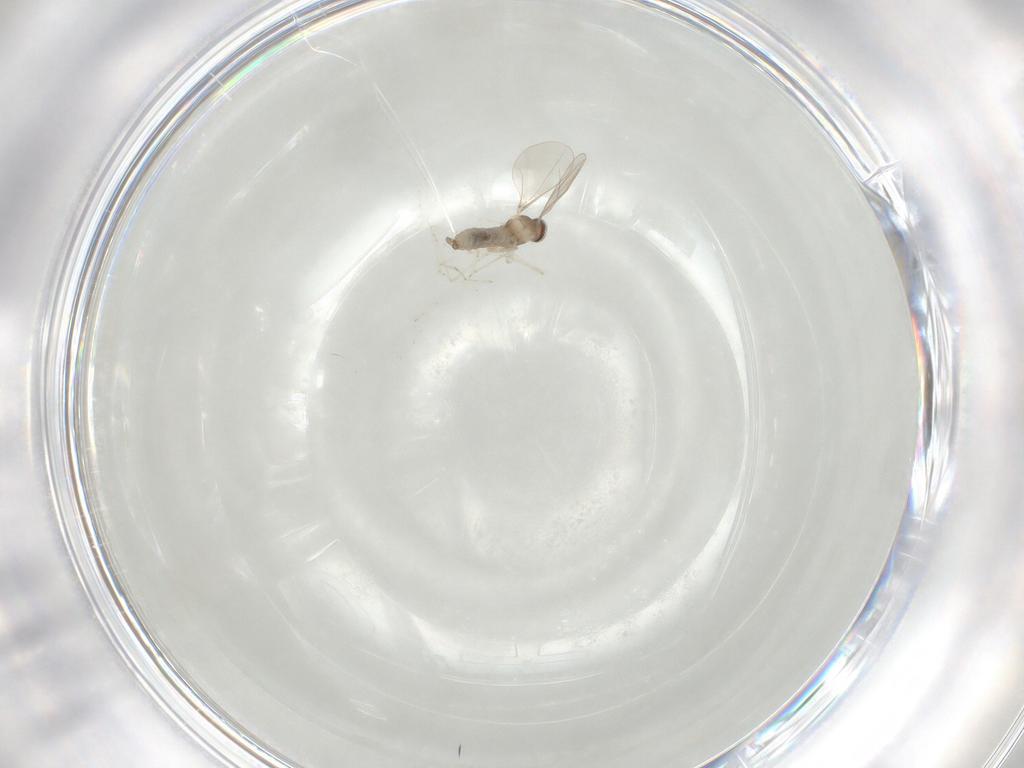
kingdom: Animalia
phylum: Arthropoda
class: Insecta
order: Diptera
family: Cecidomyiidae
